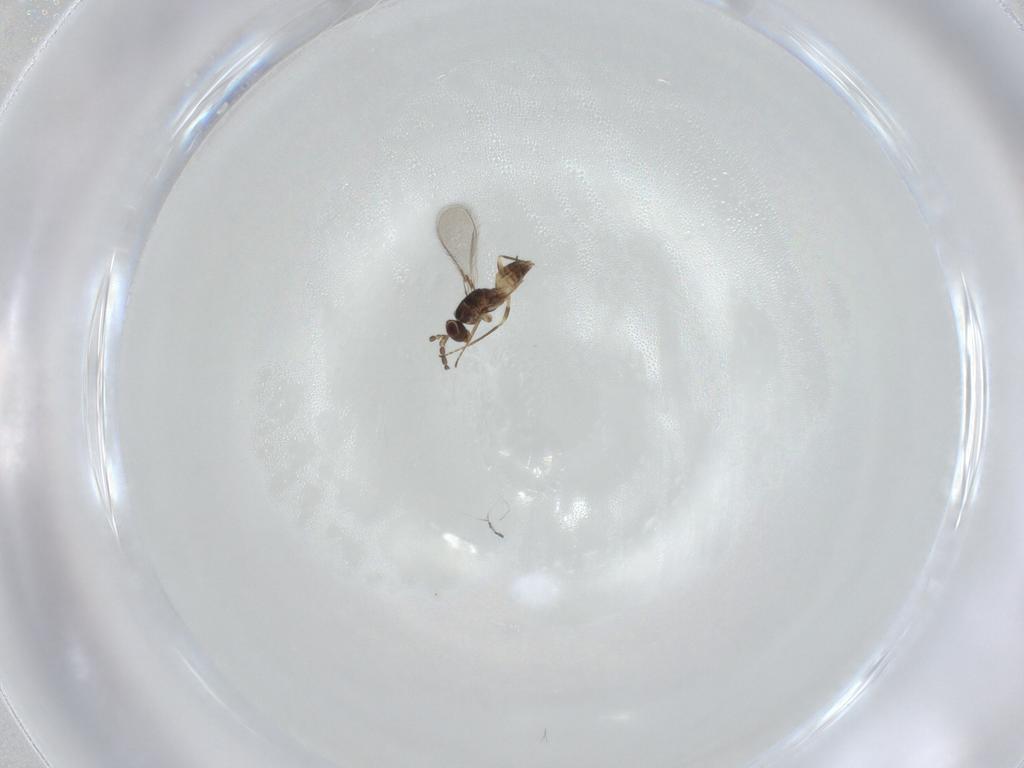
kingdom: Animalia
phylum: Arthropoda
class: Insecta
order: Hymenoptera
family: Mymaridae
